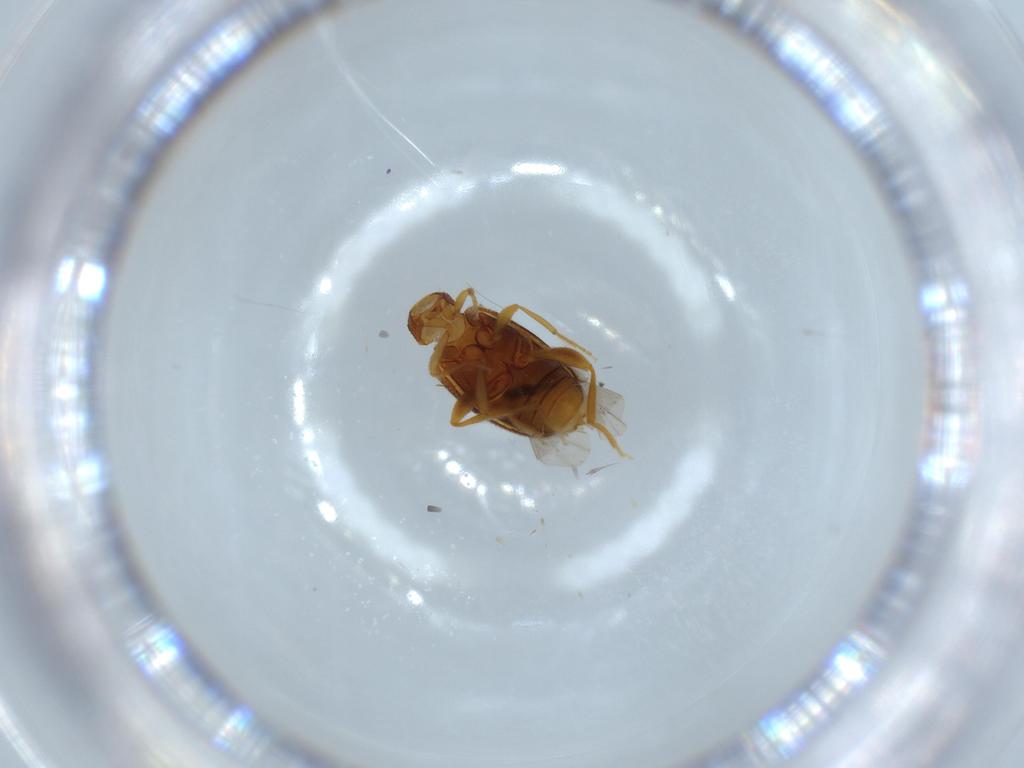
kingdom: Animalia
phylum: Arthropoda
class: Insecta
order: Coleoptera
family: Aderidae
